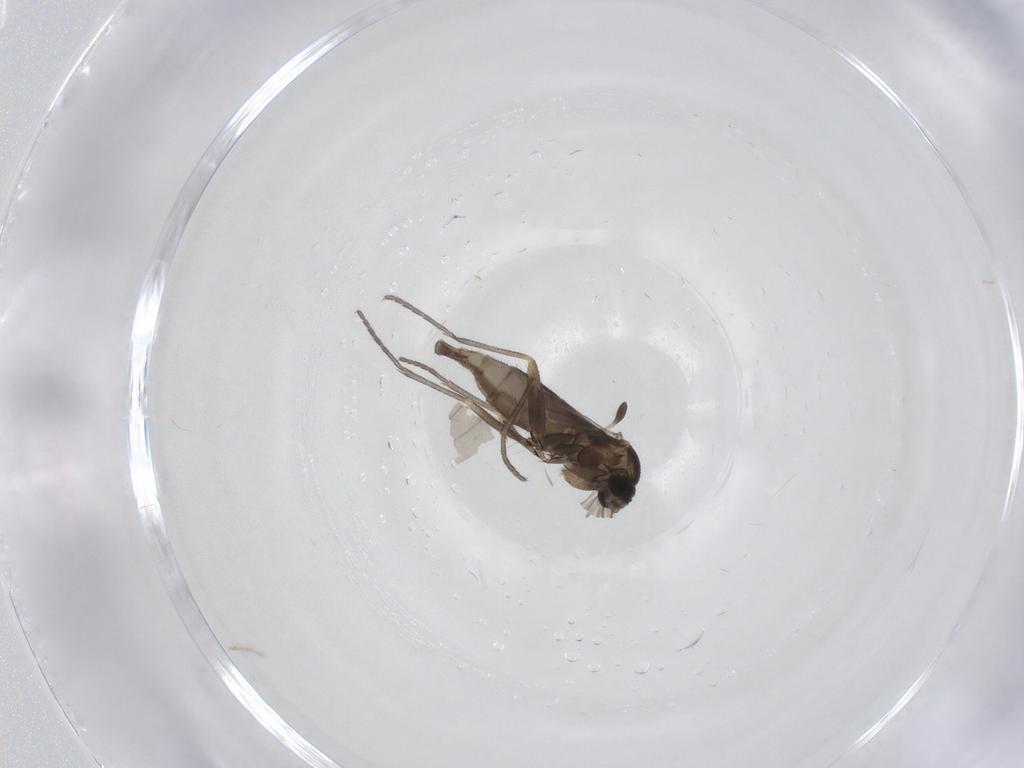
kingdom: Animalia
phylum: Arthropoda
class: Insecta
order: Diptera
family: Sciaridae
